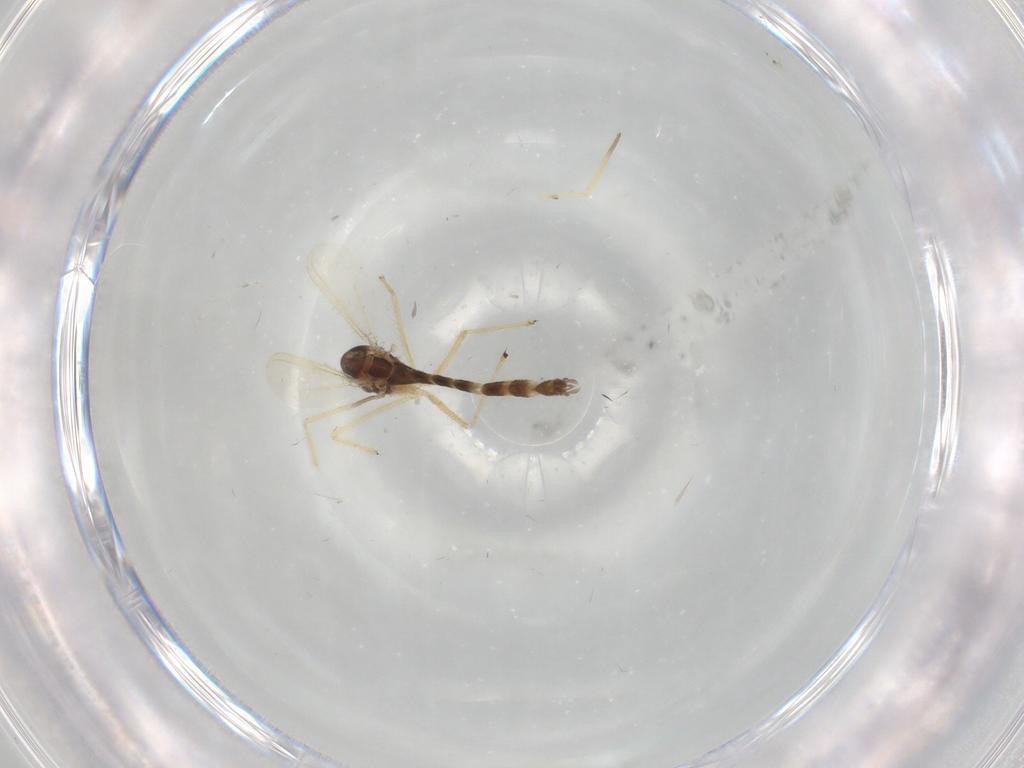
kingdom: Animalia
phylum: Arthropoda
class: Insecta
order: Diptera
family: Chironomidae
